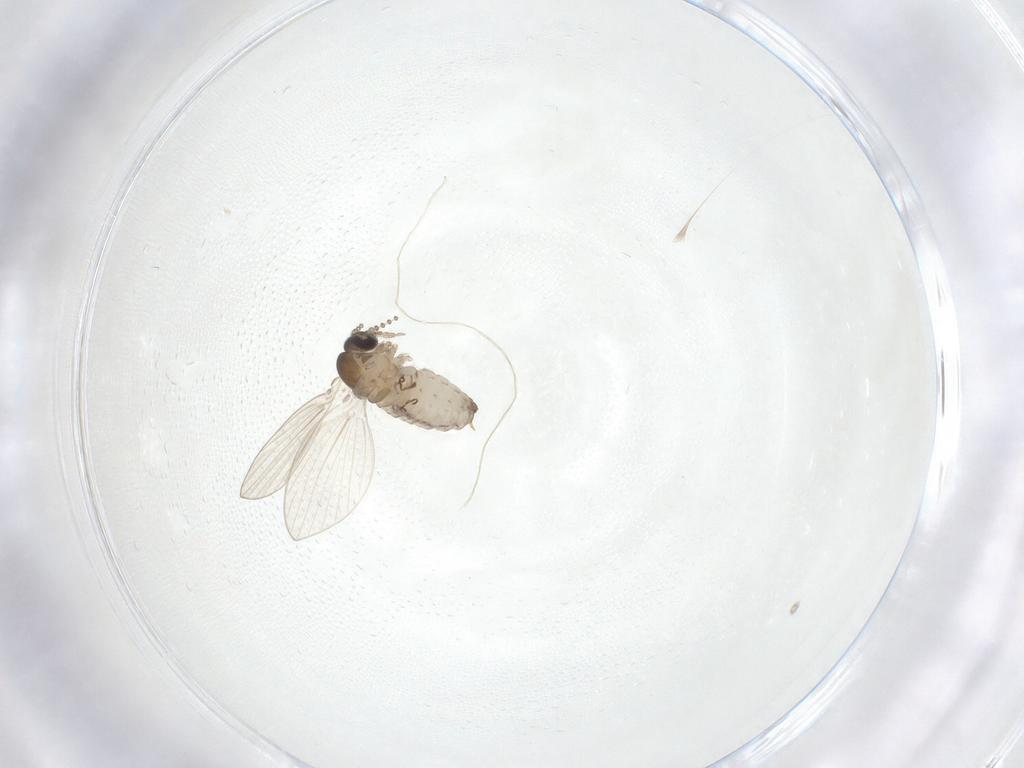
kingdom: Animalia
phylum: Arthropoda
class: Insecta
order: Diptera
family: Psychodidae
